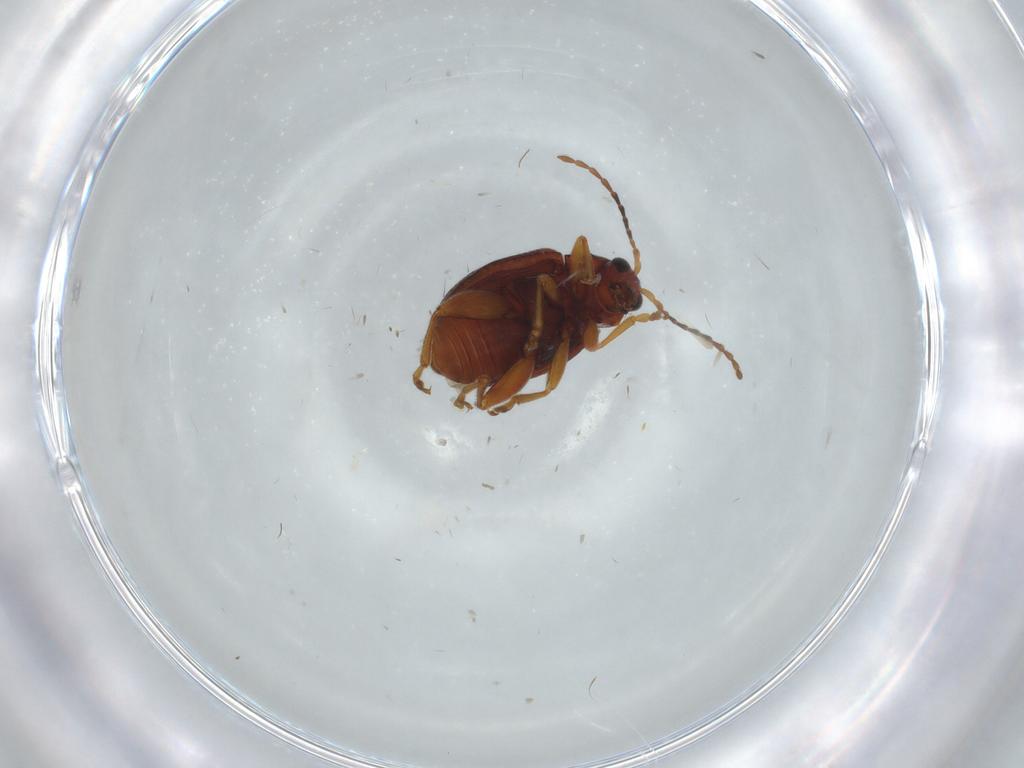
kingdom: Animalia
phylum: Arthropoda
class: Insecta
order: Coleoptera
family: Chrysomelidae
